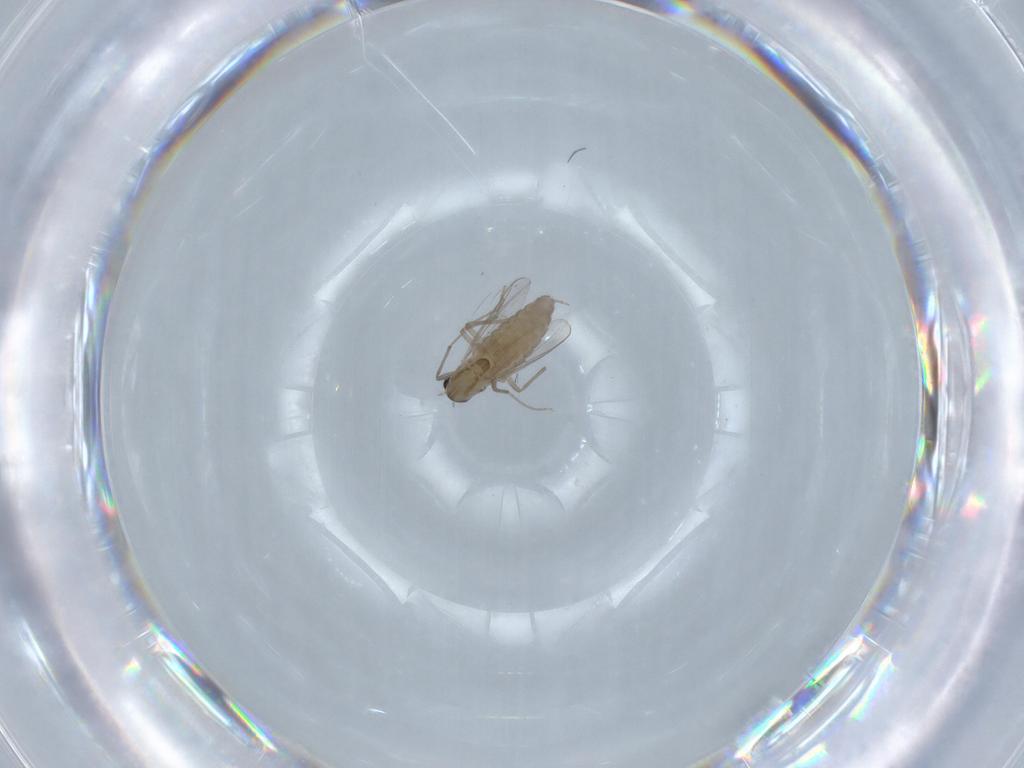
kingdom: Animalia
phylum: Arthropoda
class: Insecta
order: Diptera
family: Chironomidae
